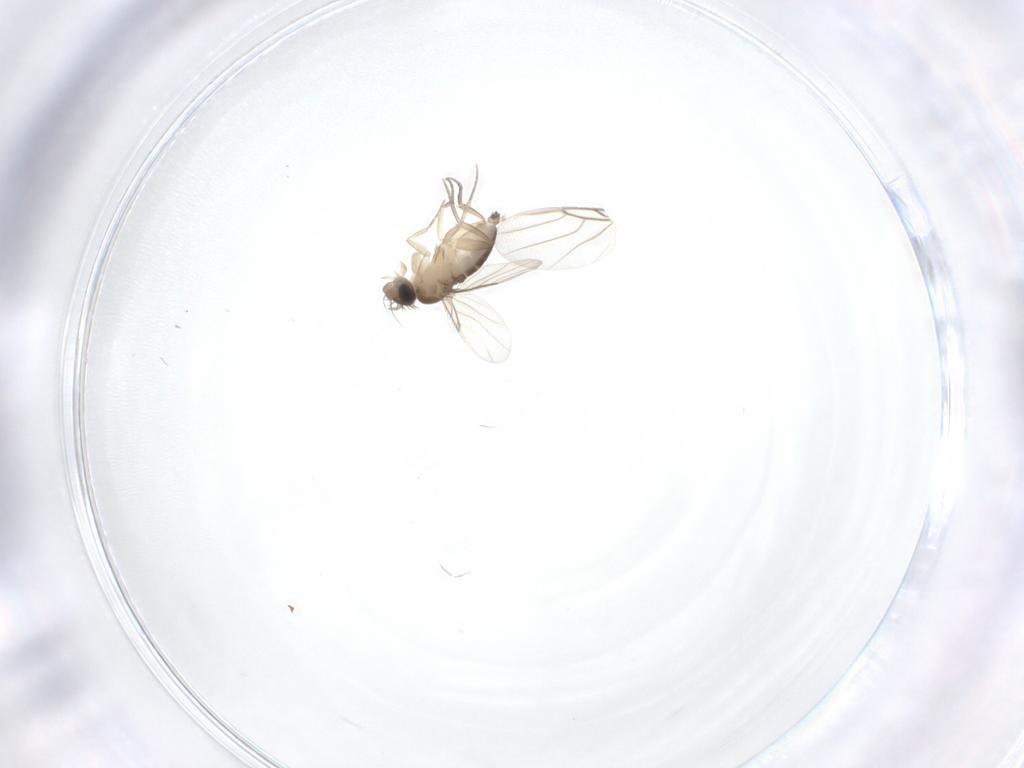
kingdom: Animalia
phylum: Arthropoda
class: Insecta
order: Diptera
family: Phoridae
